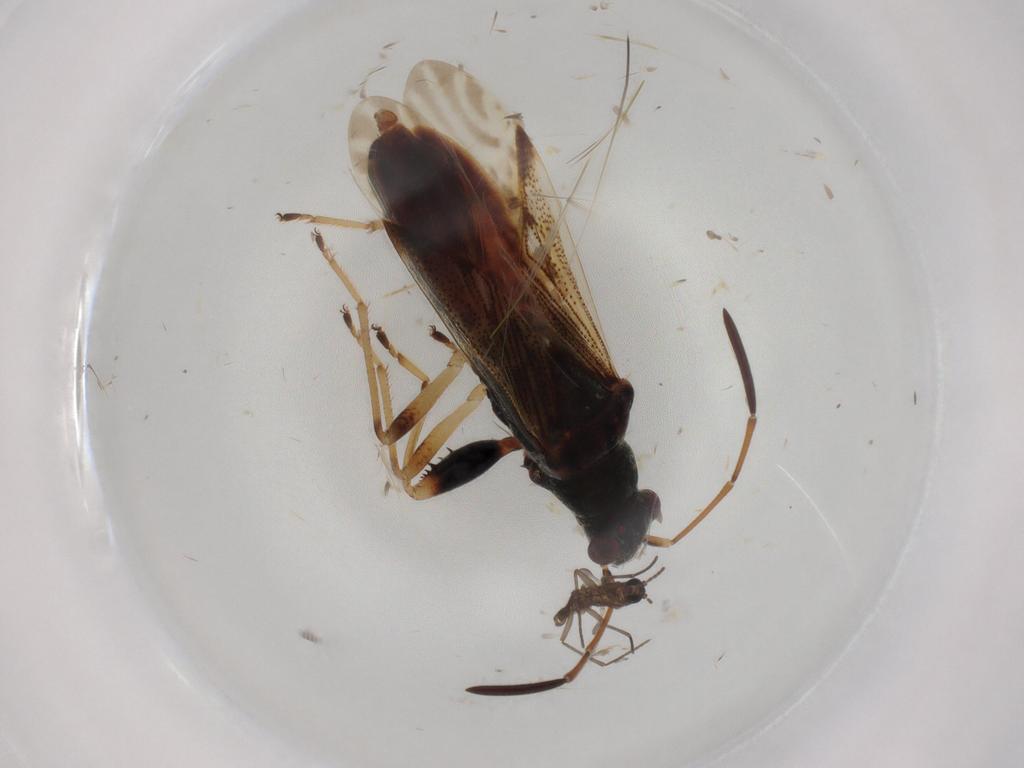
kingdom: Animalia
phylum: Arthropoda
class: Insecta
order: Hemiptera
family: Rhyparochromidae
